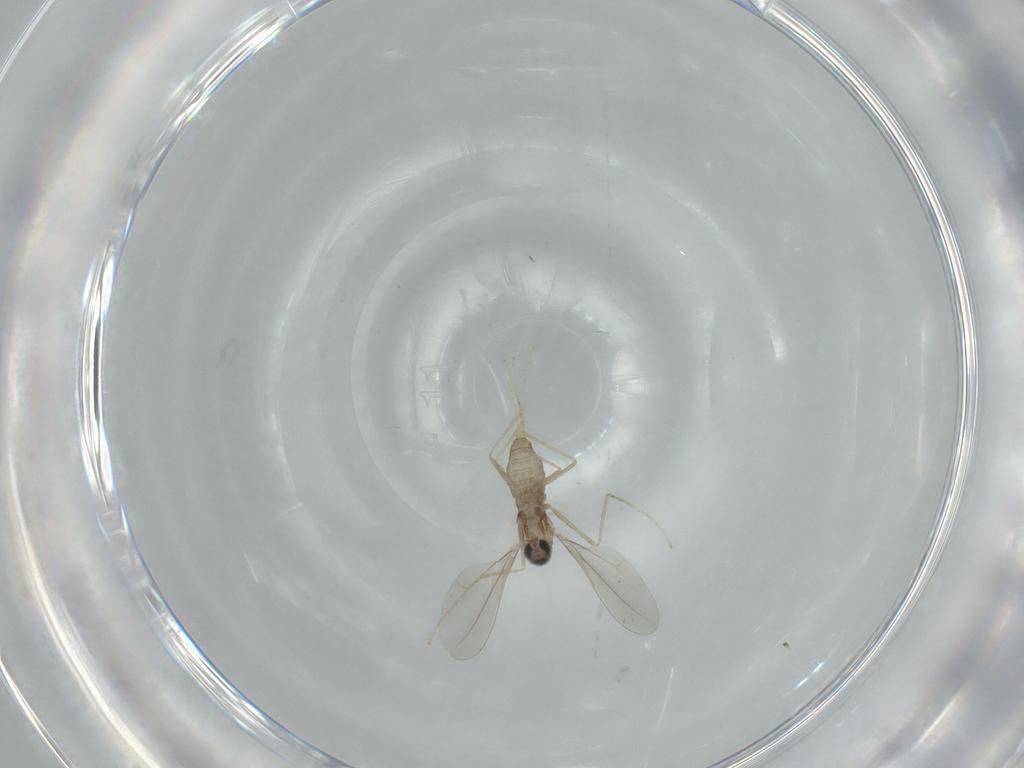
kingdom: Animalia
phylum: Arthropoda
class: Insecta
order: Diptera
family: Cecidomyiidae
